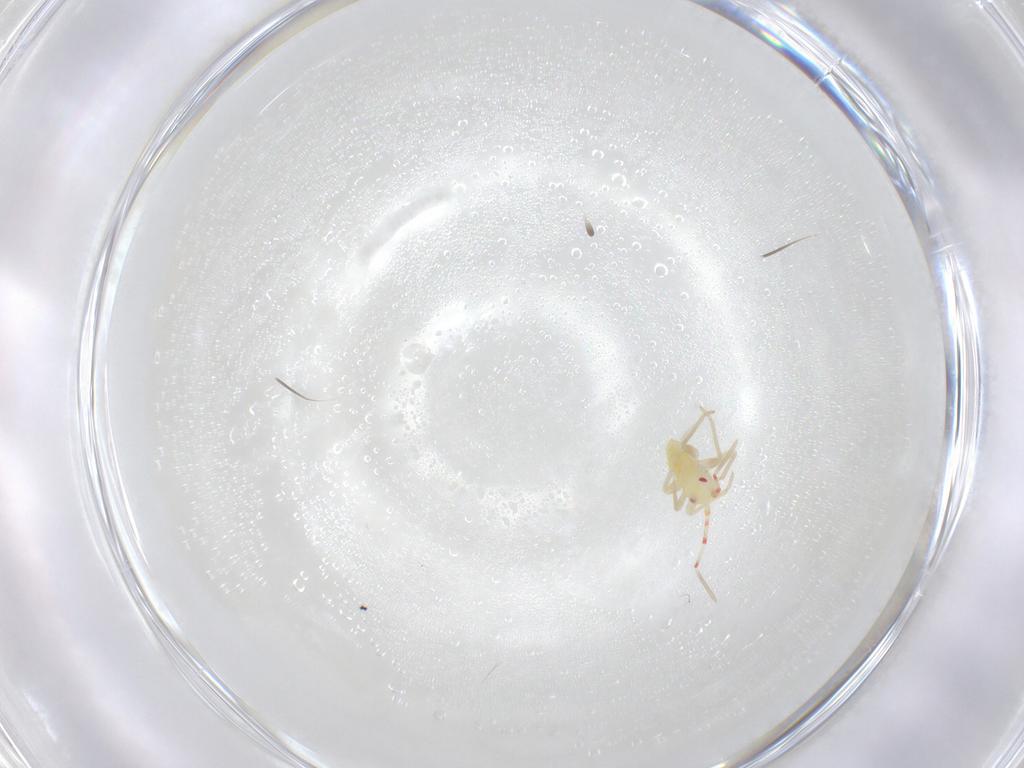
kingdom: Animalia
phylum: Arthropoda
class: Insecta
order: Hemiptera
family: Miridae
